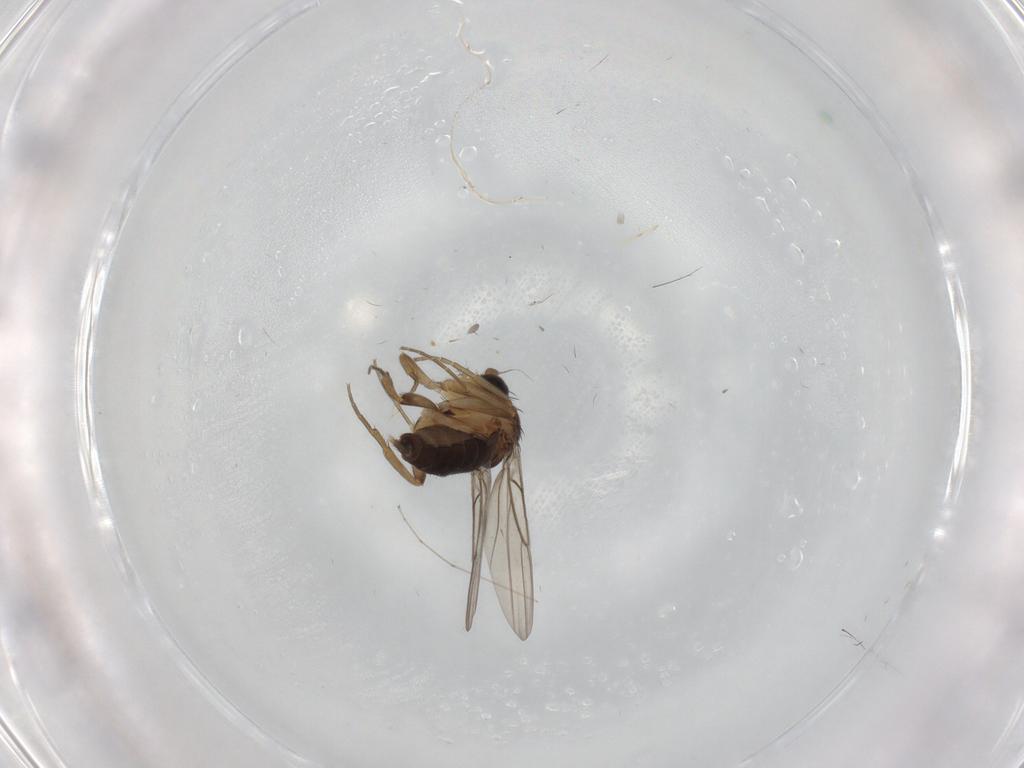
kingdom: Animalia
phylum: Arthropoda
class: Insecta
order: Diptera
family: Phoridae
